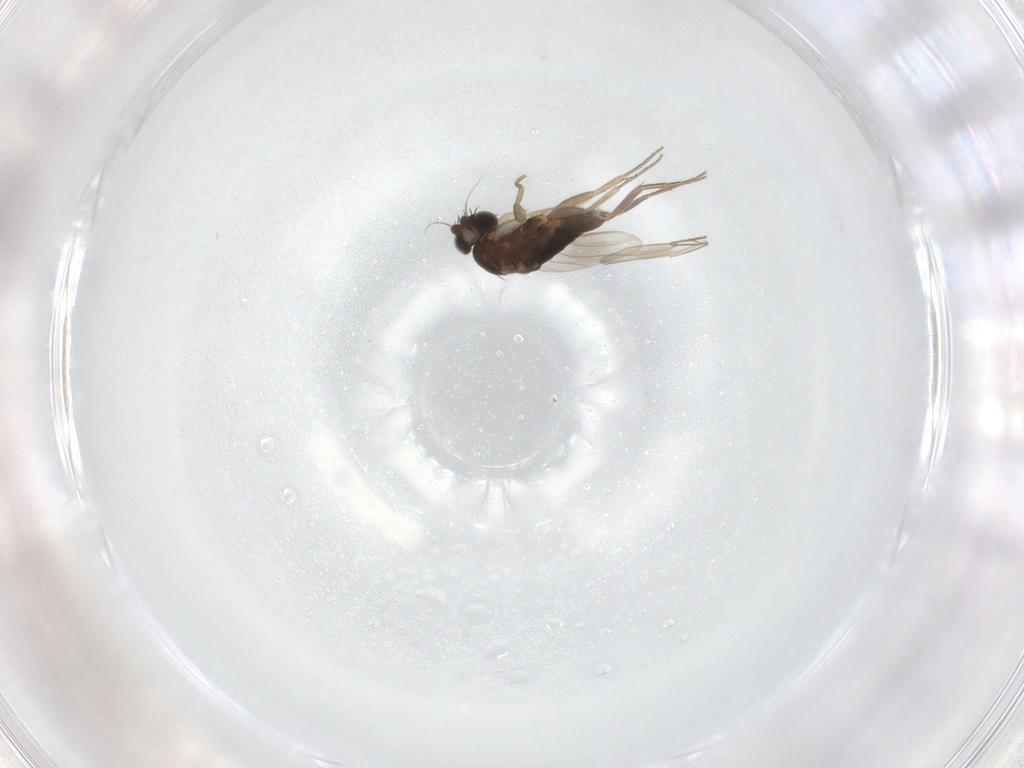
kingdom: Animalia
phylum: Arthropoda
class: Insecta
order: Diptera
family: Phoridae
